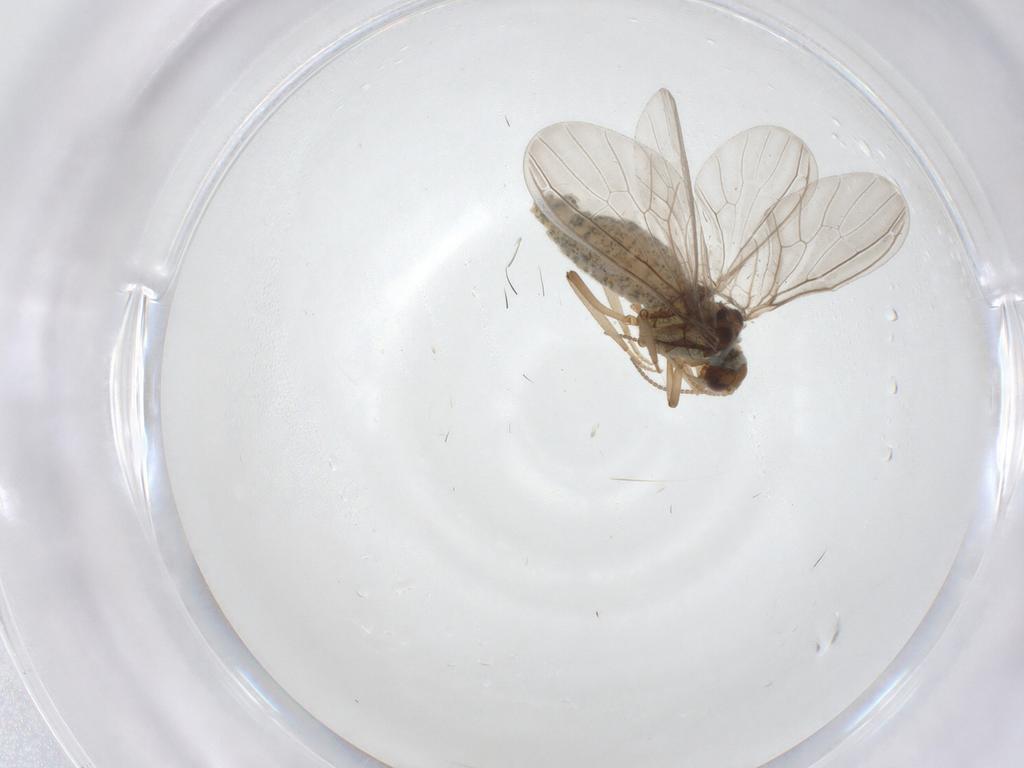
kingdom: Animalia
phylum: Arthropoda
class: Insecta
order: Neuroptera
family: Coniopterygidae
